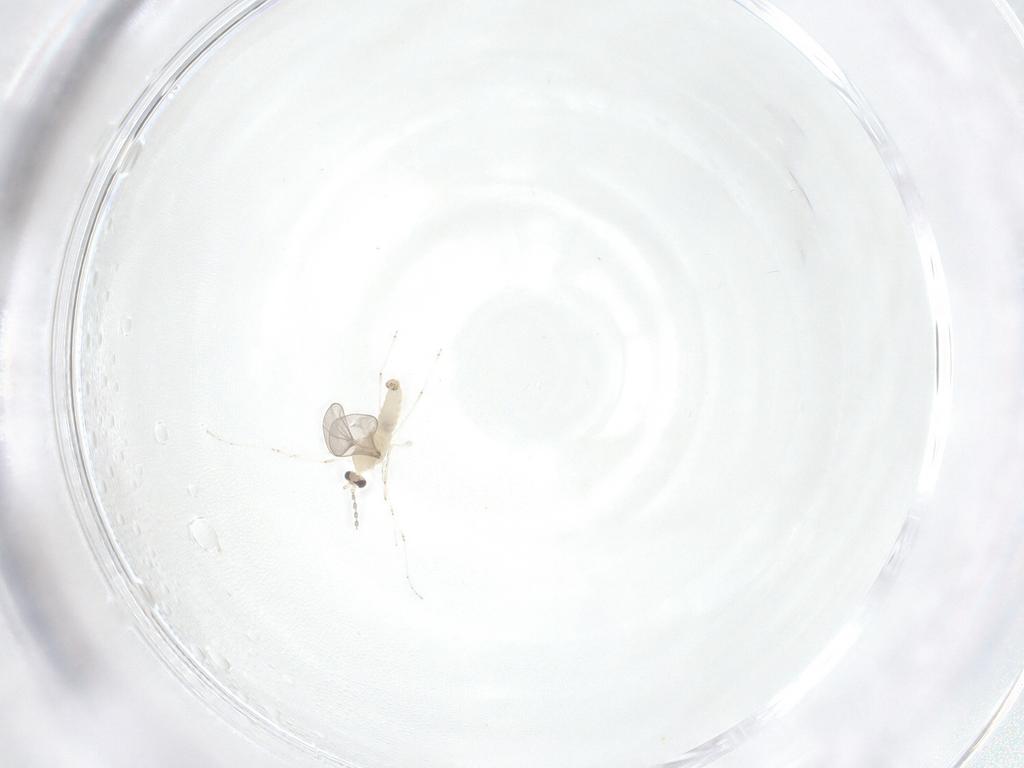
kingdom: Animalia
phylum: Arthropoda
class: Insecta
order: Diptera
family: Cecidomyiidae
